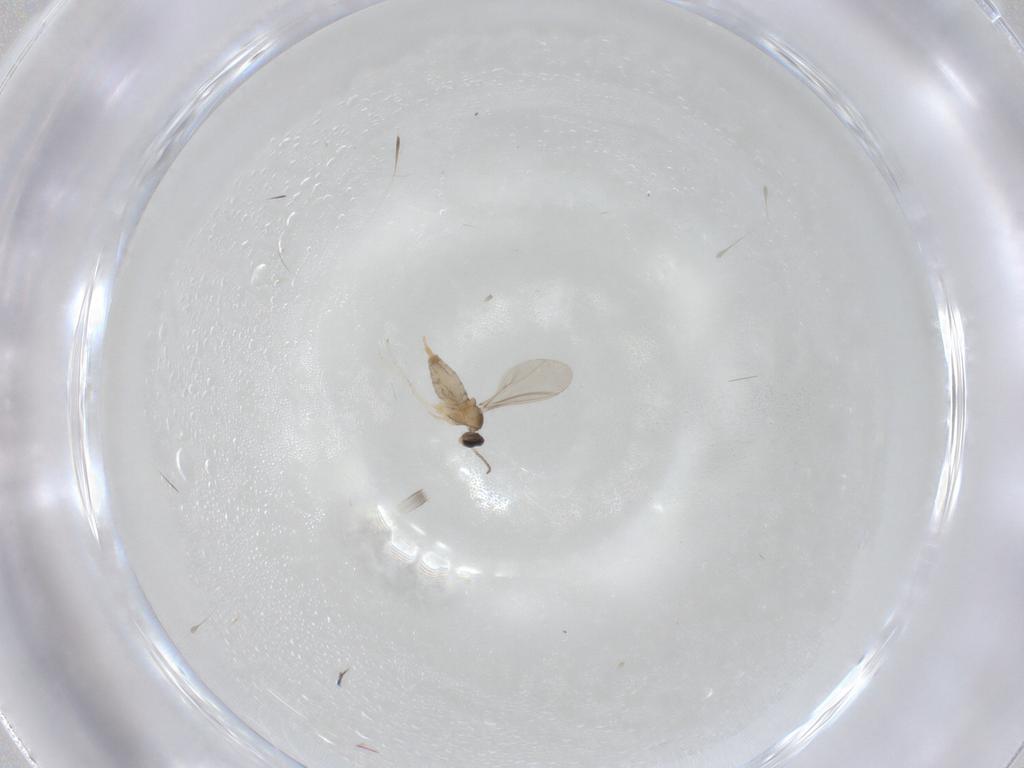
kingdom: Animalia
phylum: Arthropoda
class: Insecta
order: Diptera
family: Cecidomyiidae
